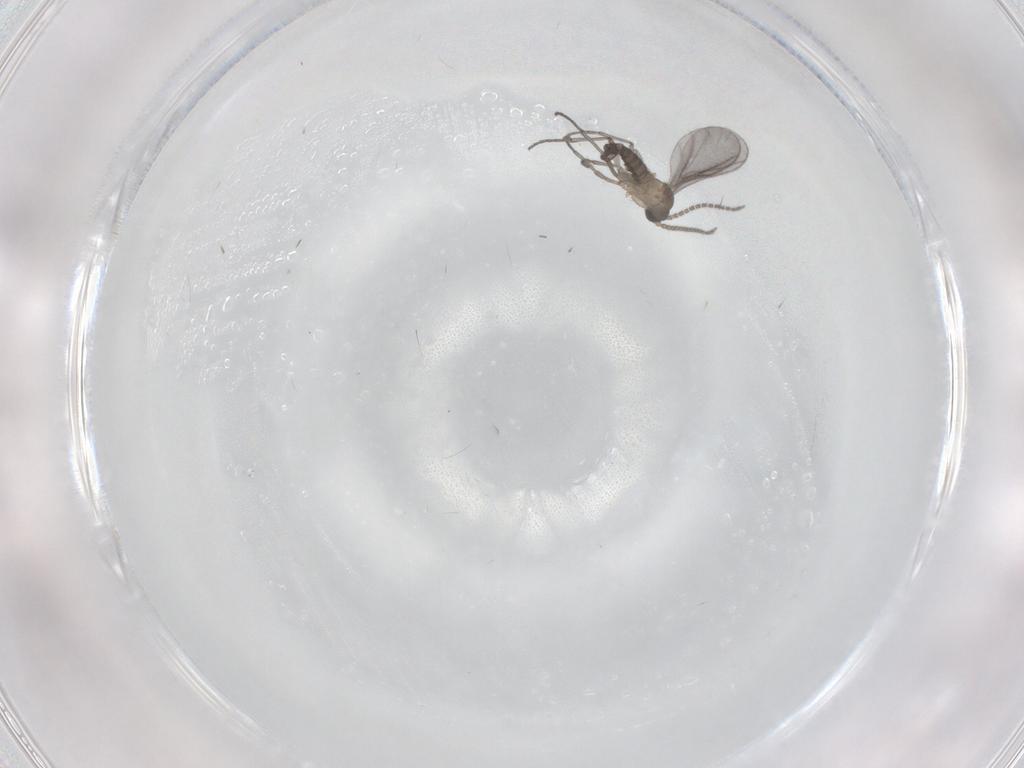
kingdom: Animalia
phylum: Arthropoda
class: Insecta
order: Diptera
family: Sciaridae
